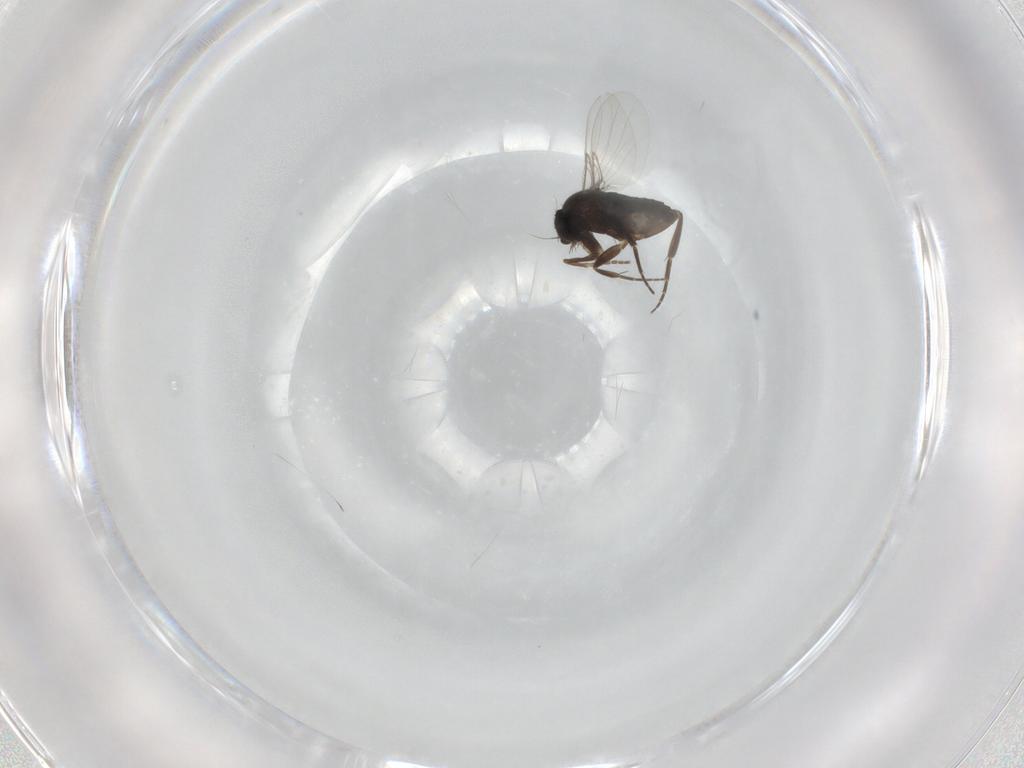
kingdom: Animalia
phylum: Arthropoda
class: Insecta
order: Diptera
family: Phoridae
